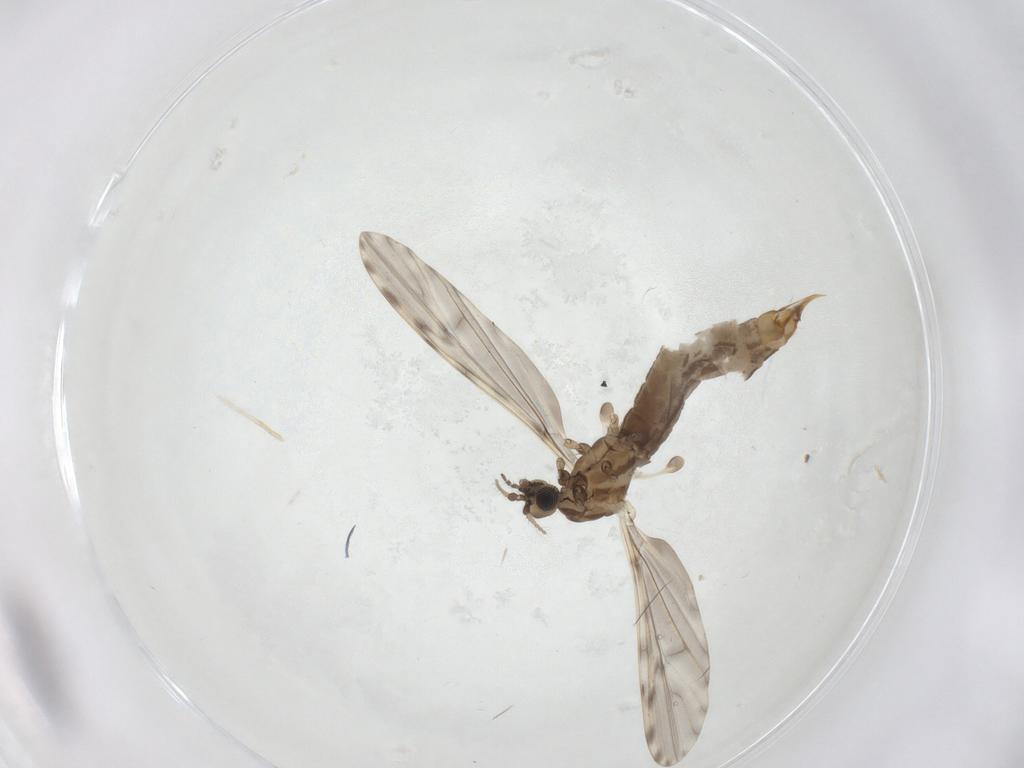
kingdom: Animalia
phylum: Arthropoda
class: Insecta
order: Diptera
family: Limoniidae
